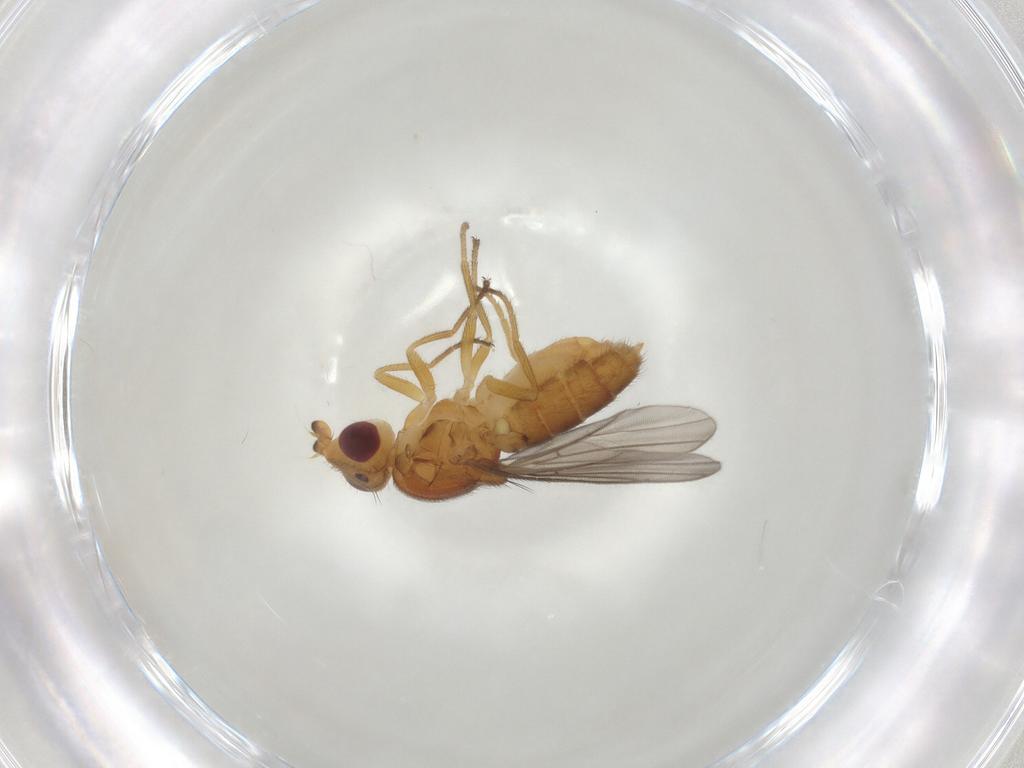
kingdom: Animalia
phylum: Arthropoda
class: Insecta
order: Diptera
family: Chloropidae
